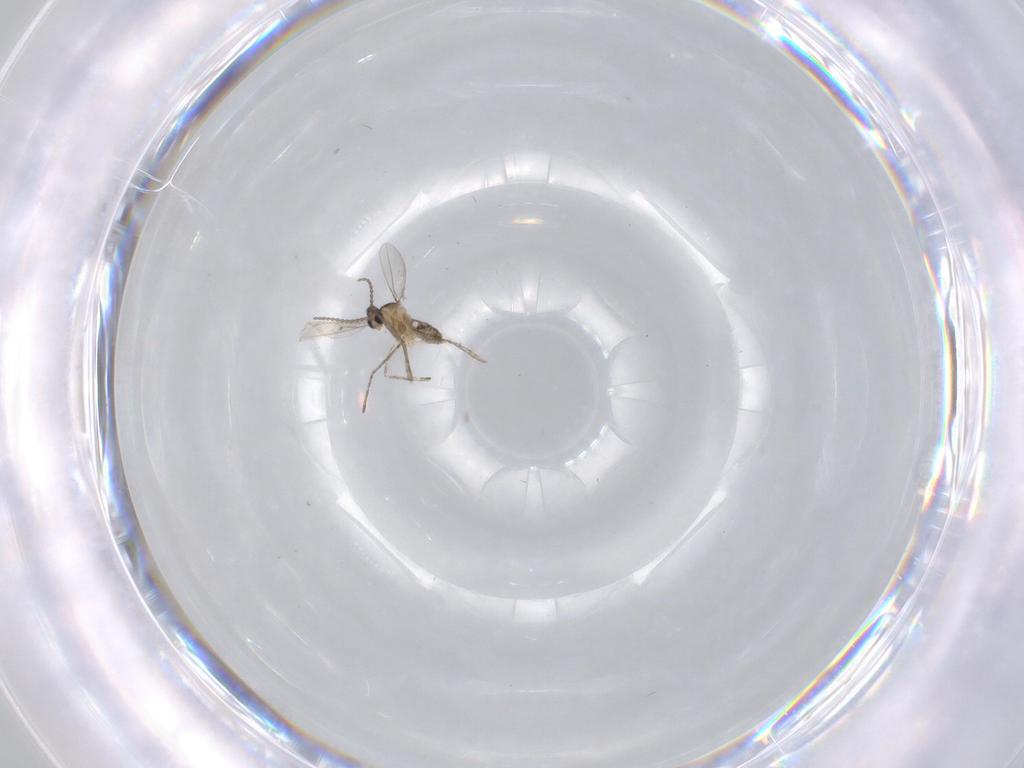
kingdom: Animalia
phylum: Arthropoda
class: Insecta
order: Diptera
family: Cecidomyiidae
